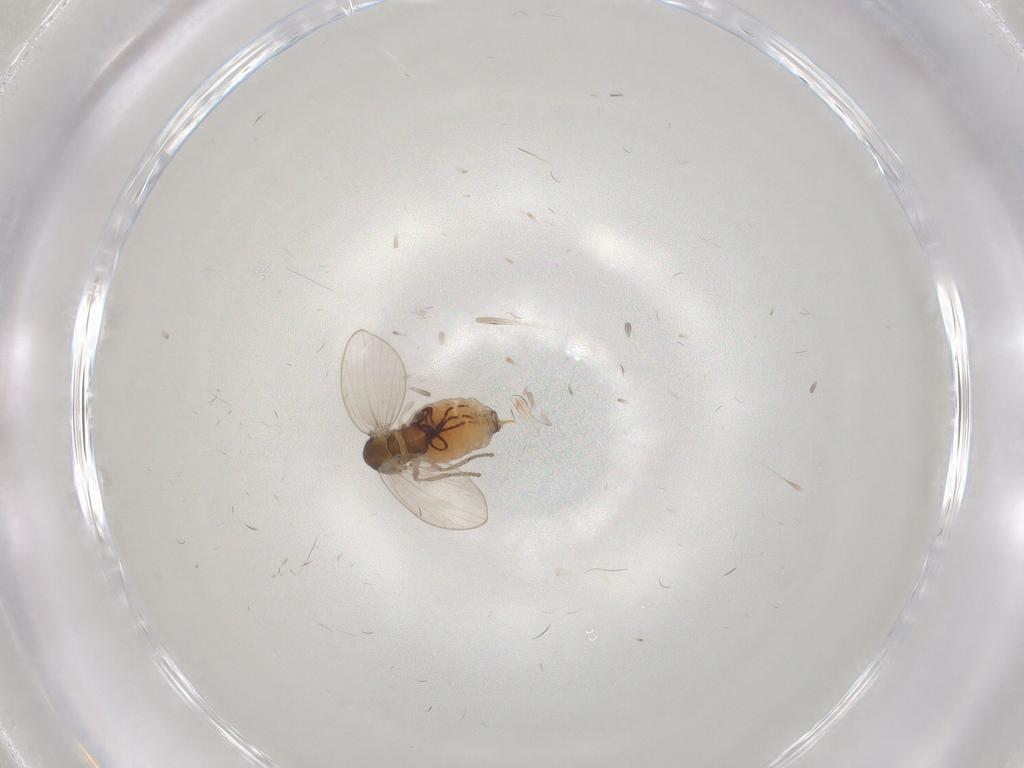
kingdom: Animalia
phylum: Arthropoda
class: Insecta
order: Diptera
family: Psychodidae
